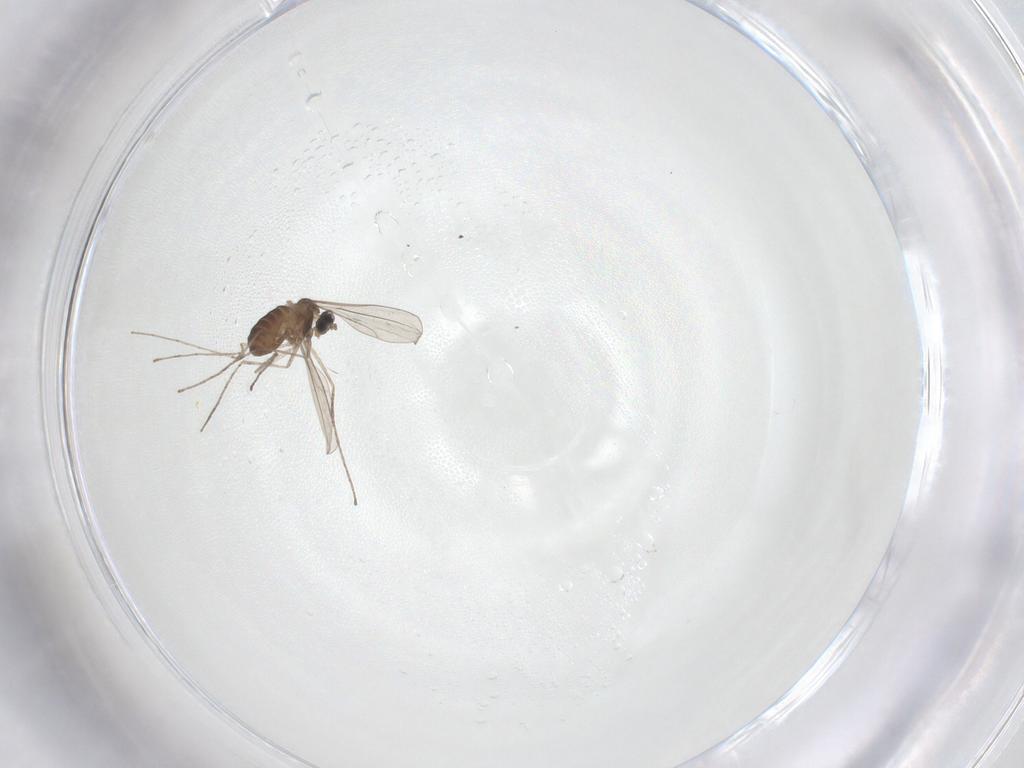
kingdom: Animalia
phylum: Arthropoda
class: Insecta
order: Diptera
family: Cecidomyiidae
